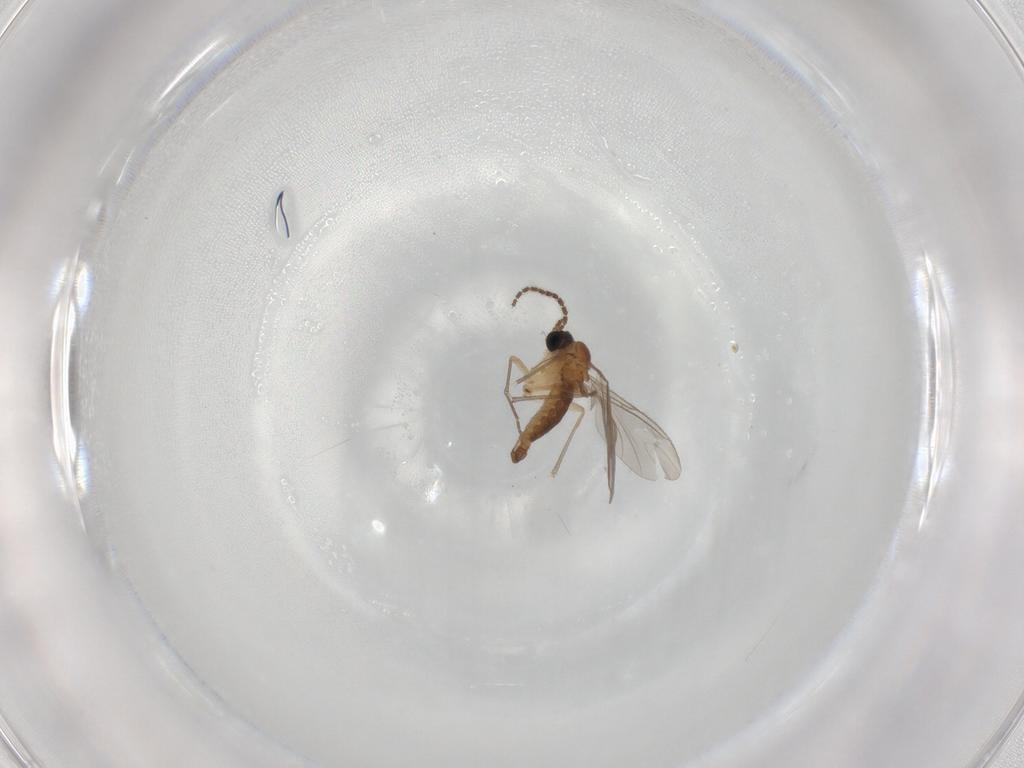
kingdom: Animalia
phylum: Arthropoda
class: Insecta
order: Diptera
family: Sciaridae
